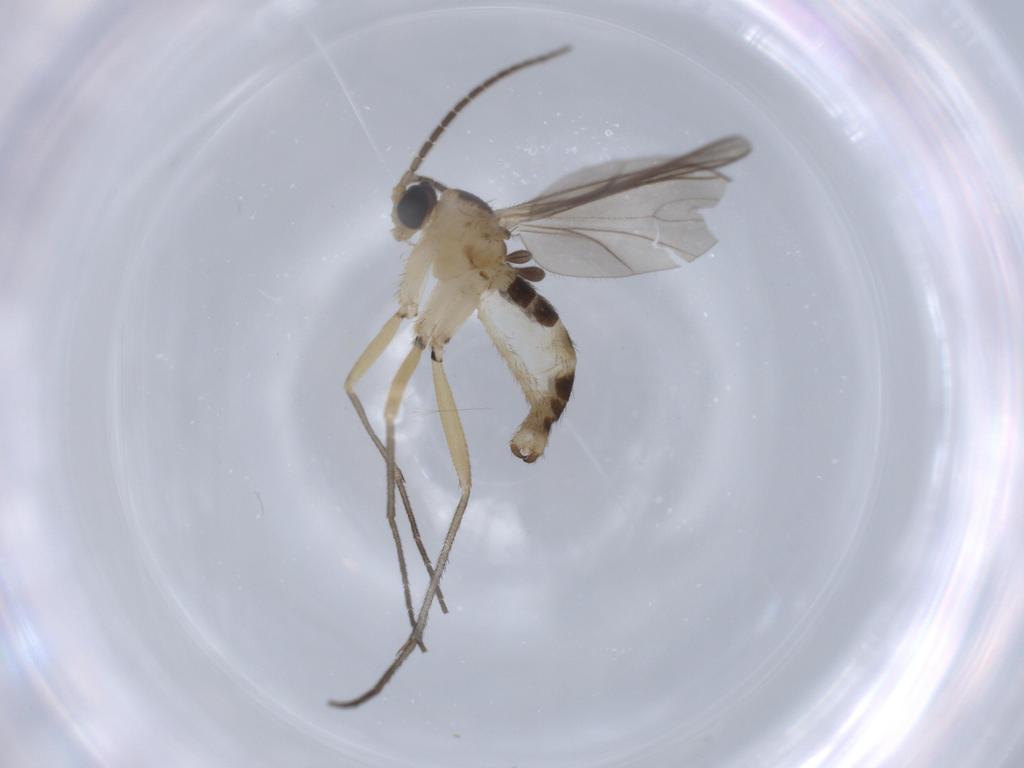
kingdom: Animalia
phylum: Arthropoda
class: Insecta
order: Diptera
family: Sciaridae
